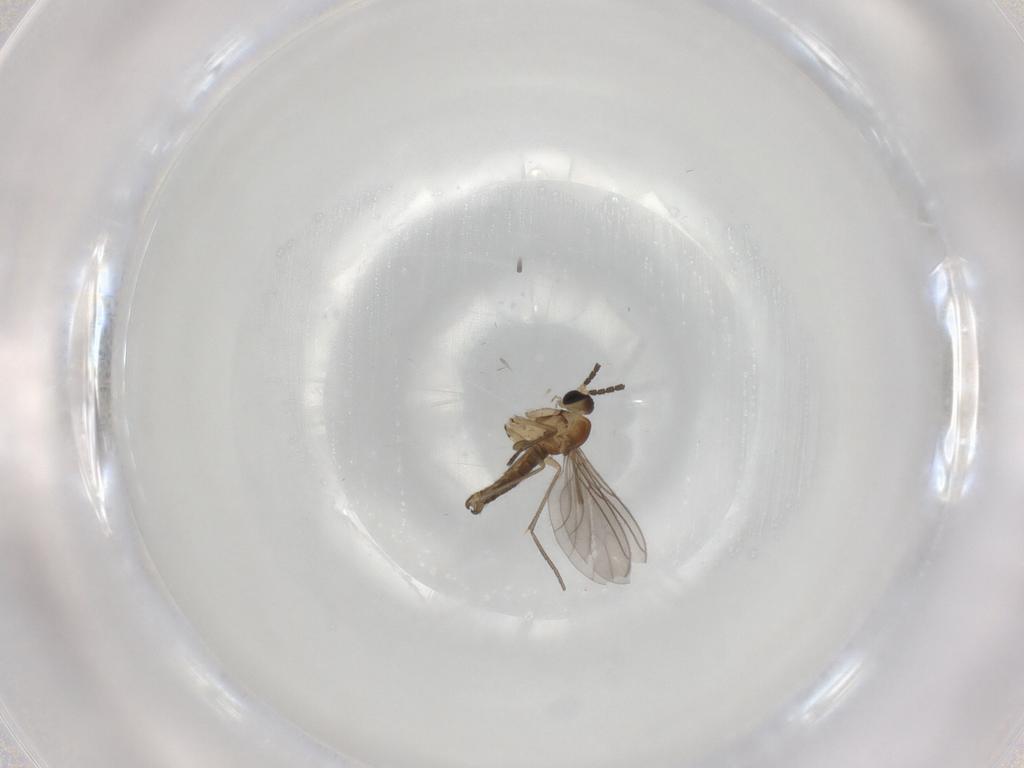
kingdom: Animalia
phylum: Arthropoda
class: Insecta
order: Diptera
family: Sciaridae
